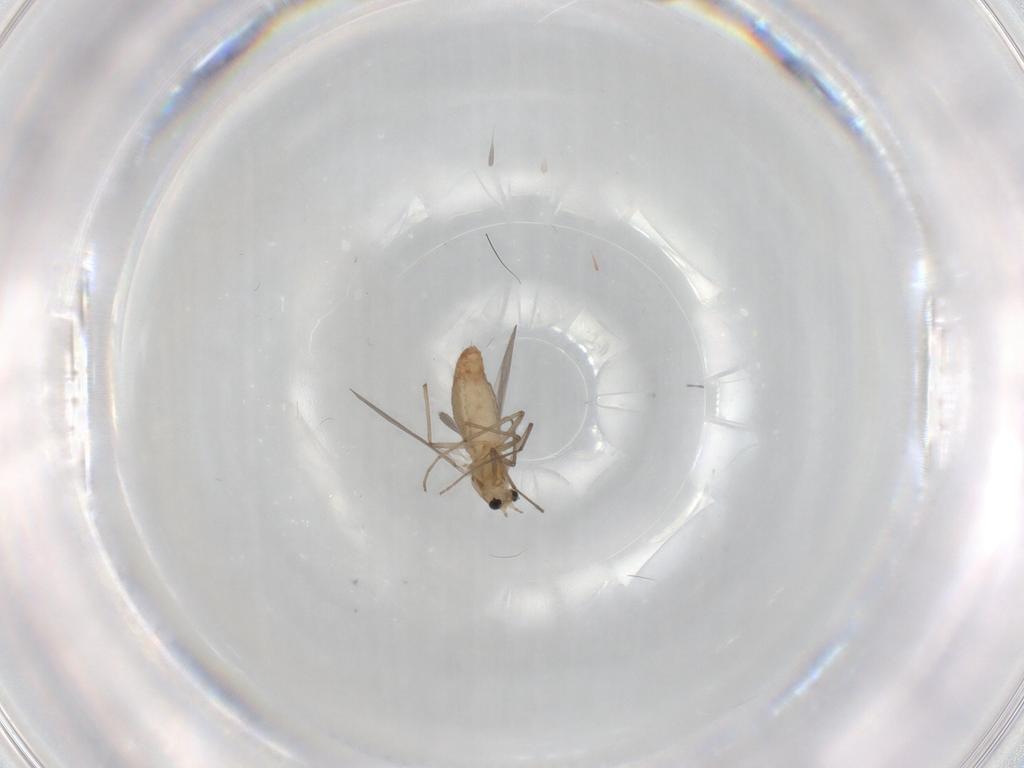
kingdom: Animalia
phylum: Arthropoda
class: Insecta
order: Diptera
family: Chironomidae
